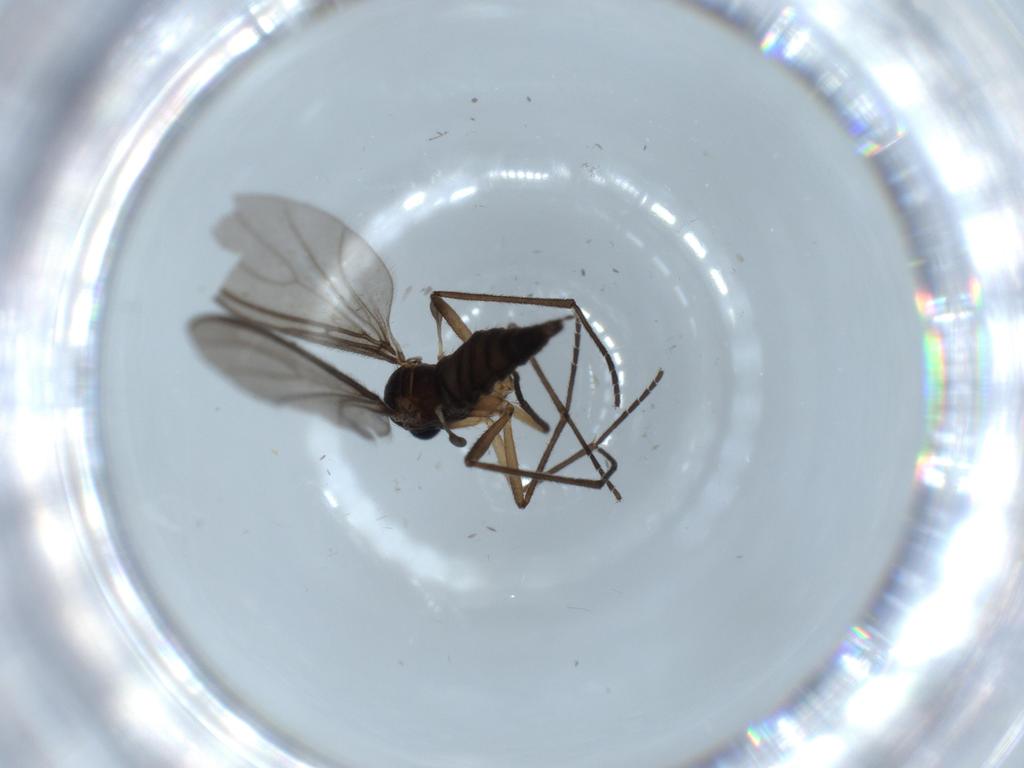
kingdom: Animalia
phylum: Arthropoda
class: Insecta
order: Diptera
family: Sciaridae
